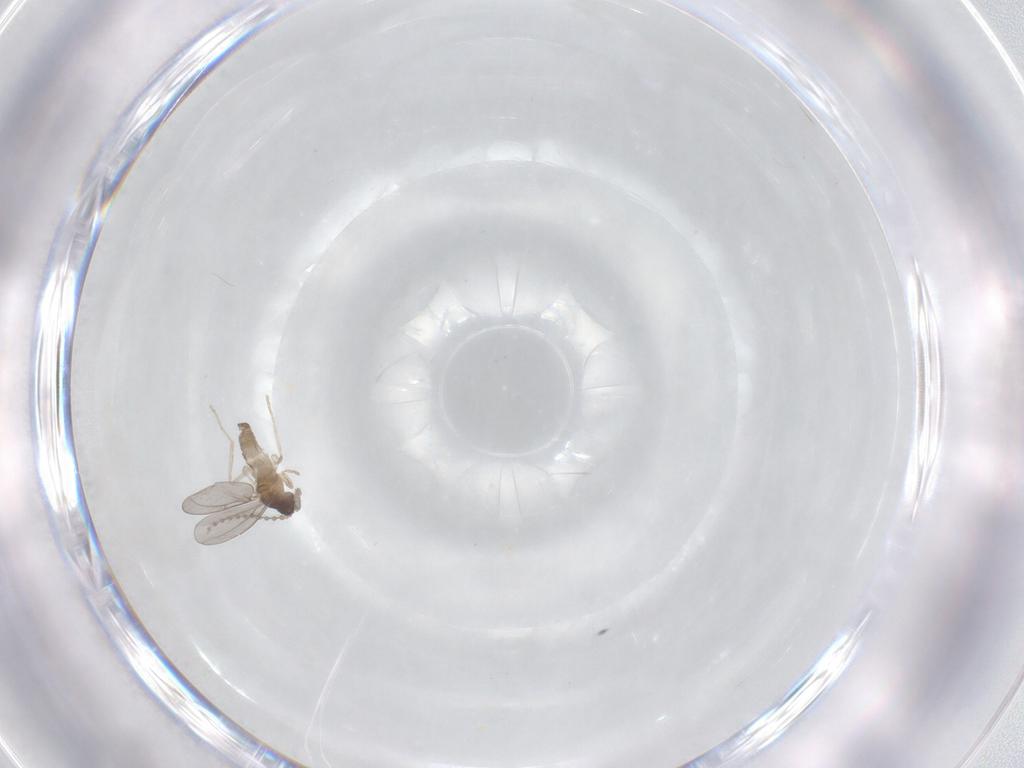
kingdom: Animalia
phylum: Arthropoda
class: Insecta
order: Diptera
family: Cecidomyiidae
